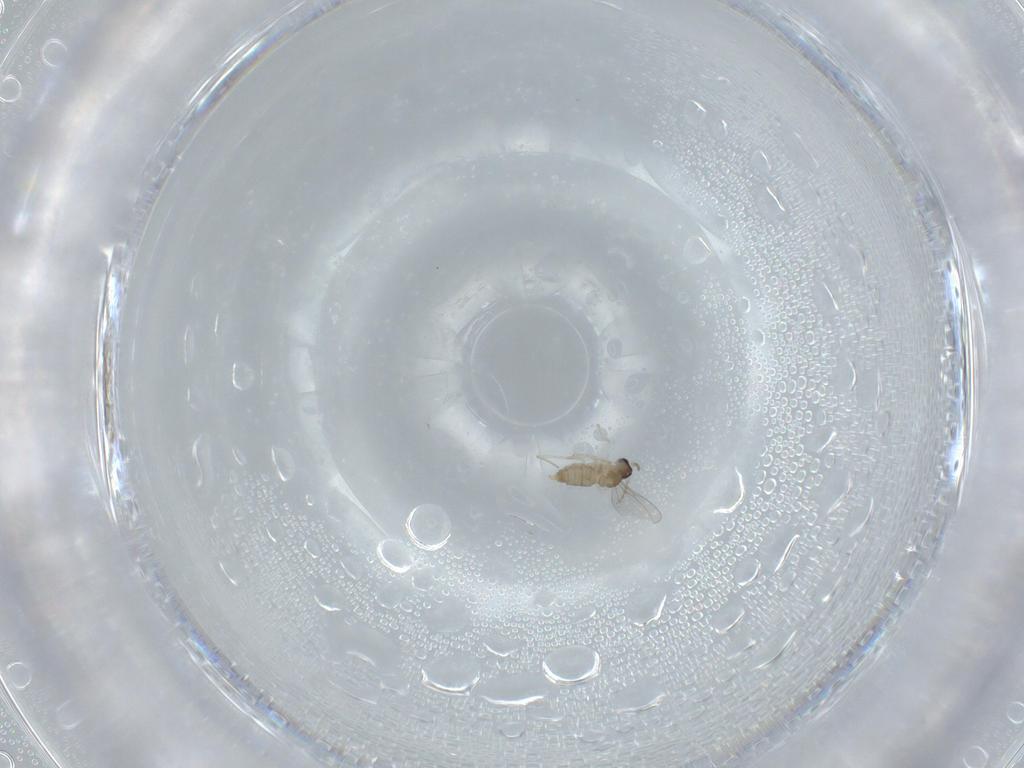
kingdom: Animalia
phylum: Arthropoda
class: Insecta
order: Diptera
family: Cecidomyiidae
